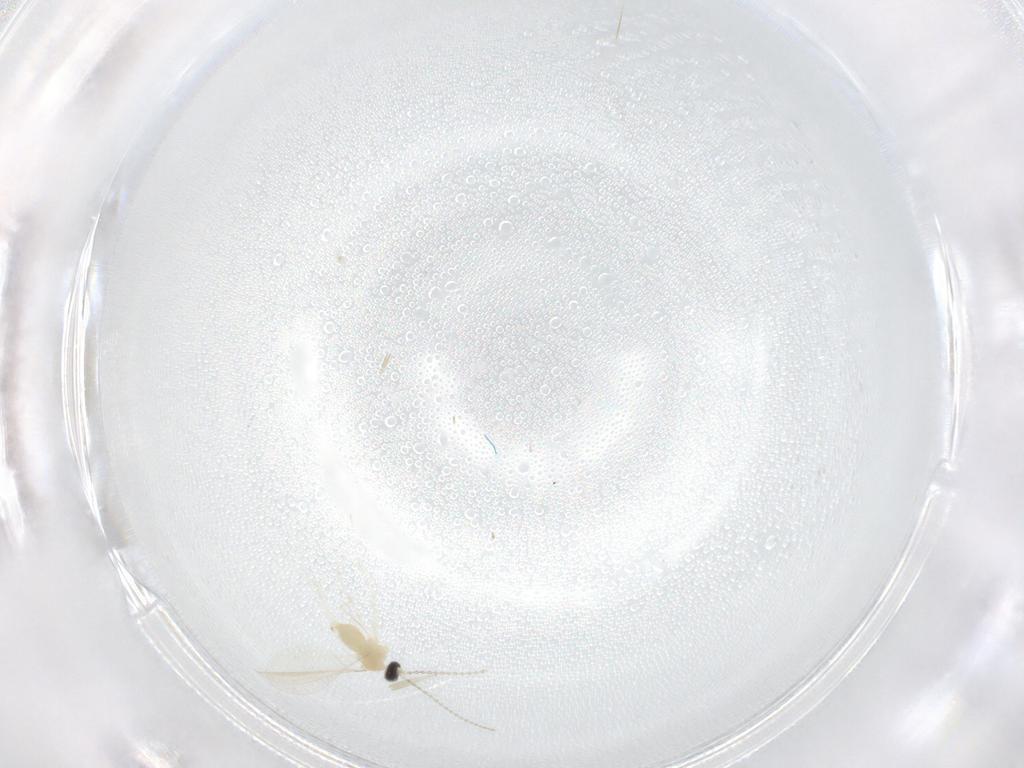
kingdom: Animalia
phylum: Arthropoda
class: Insecta
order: Diptera
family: Cecidomyiidae
